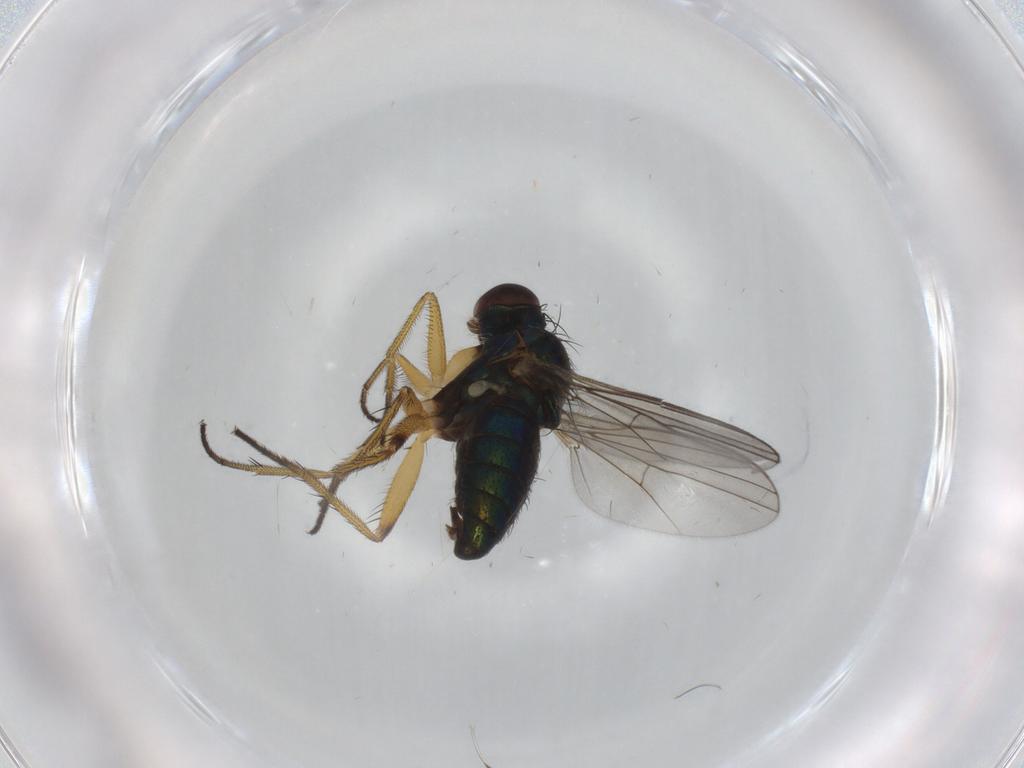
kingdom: Animalia
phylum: Arthropoda
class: Insecta
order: Diptera
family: Dolichopodidae
